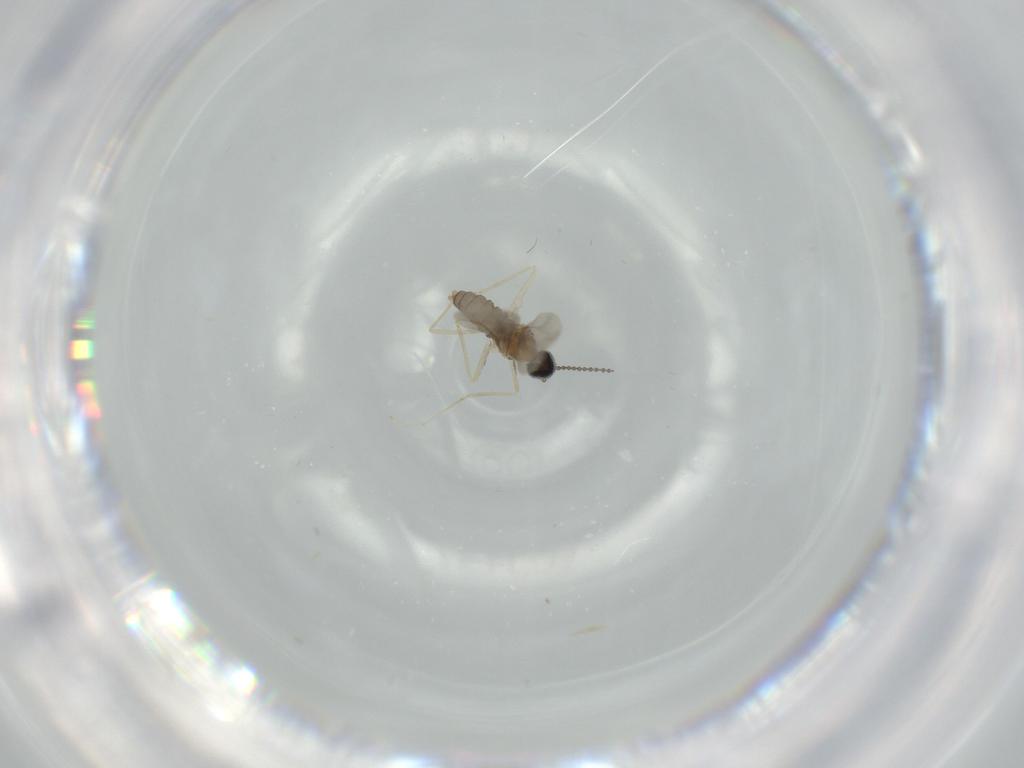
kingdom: Animalia
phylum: Arthropoda
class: Insecta
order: Diptera
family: Cecidomyiidae
